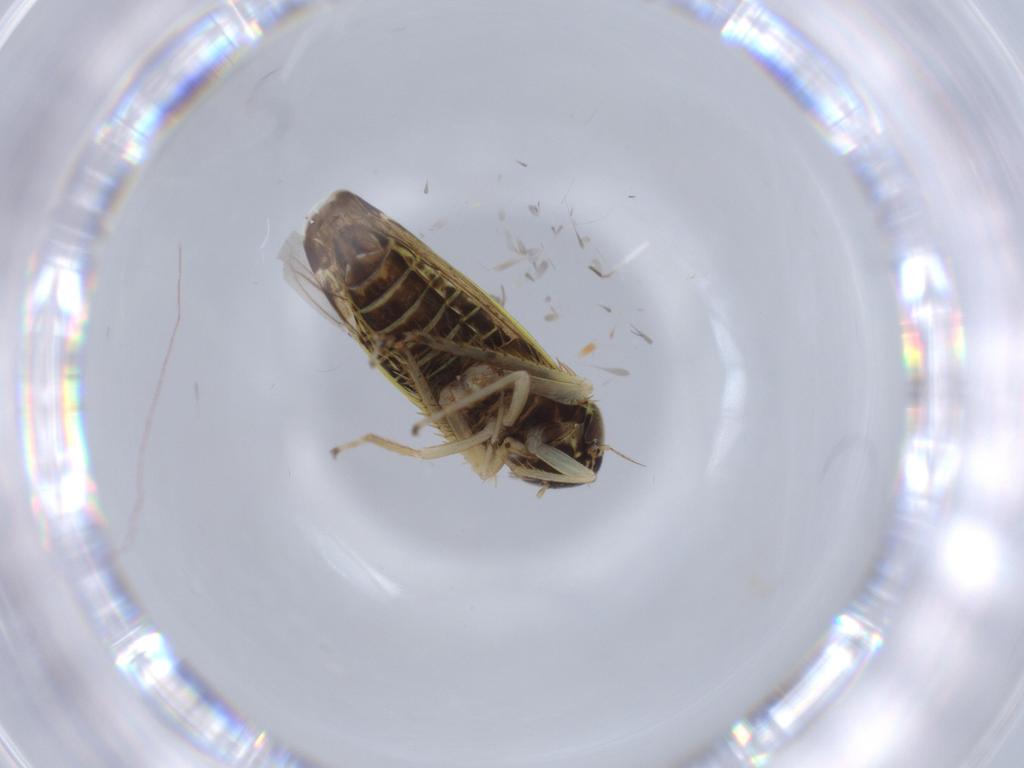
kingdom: Animalia
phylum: Arthropoda
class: Insecta
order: Hemiptera
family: Cicadellidae
